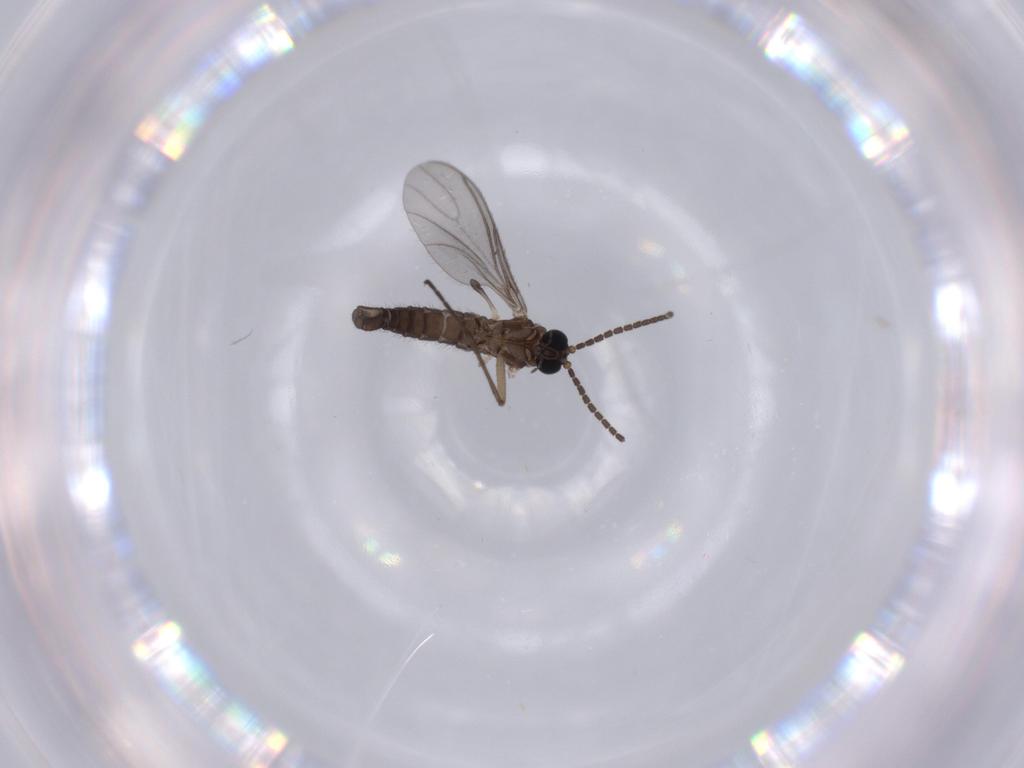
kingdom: Animalia
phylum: Arthropoda
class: Insecta
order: Diptera
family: Sciaridae
